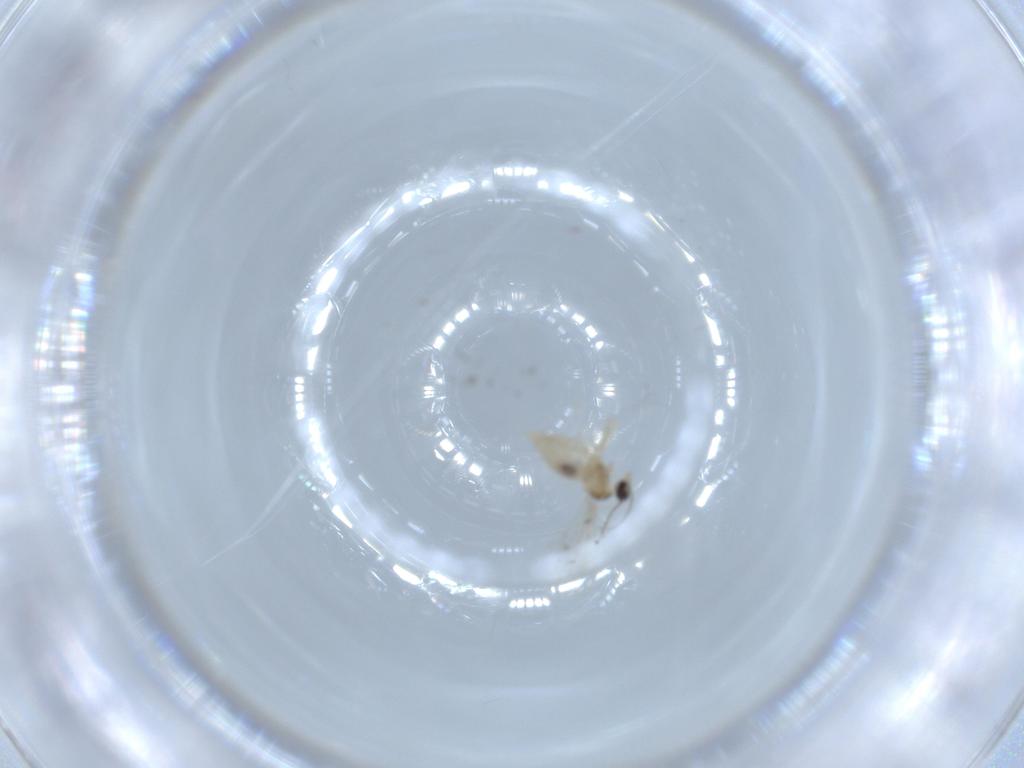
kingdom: Animalia
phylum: Arthropoda
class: Insecta
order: Diptera
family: Cecidomyiidae
